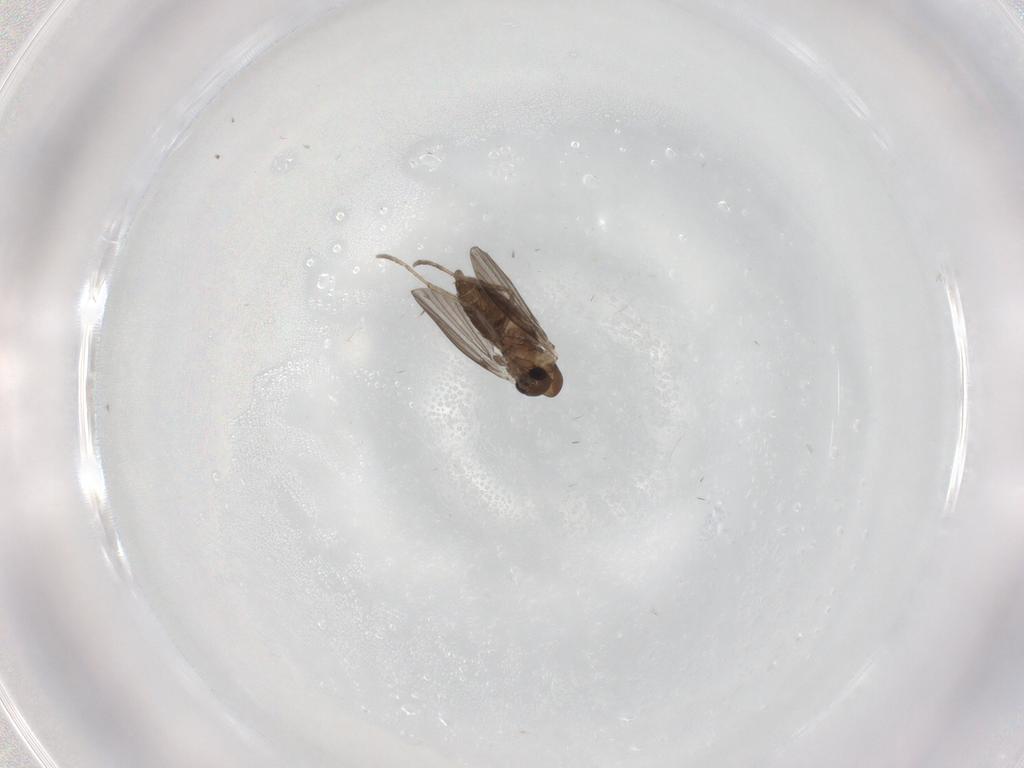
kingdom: Animalia
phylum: Arthropoda
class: Insecta
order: Diptera
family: Psychodidae
